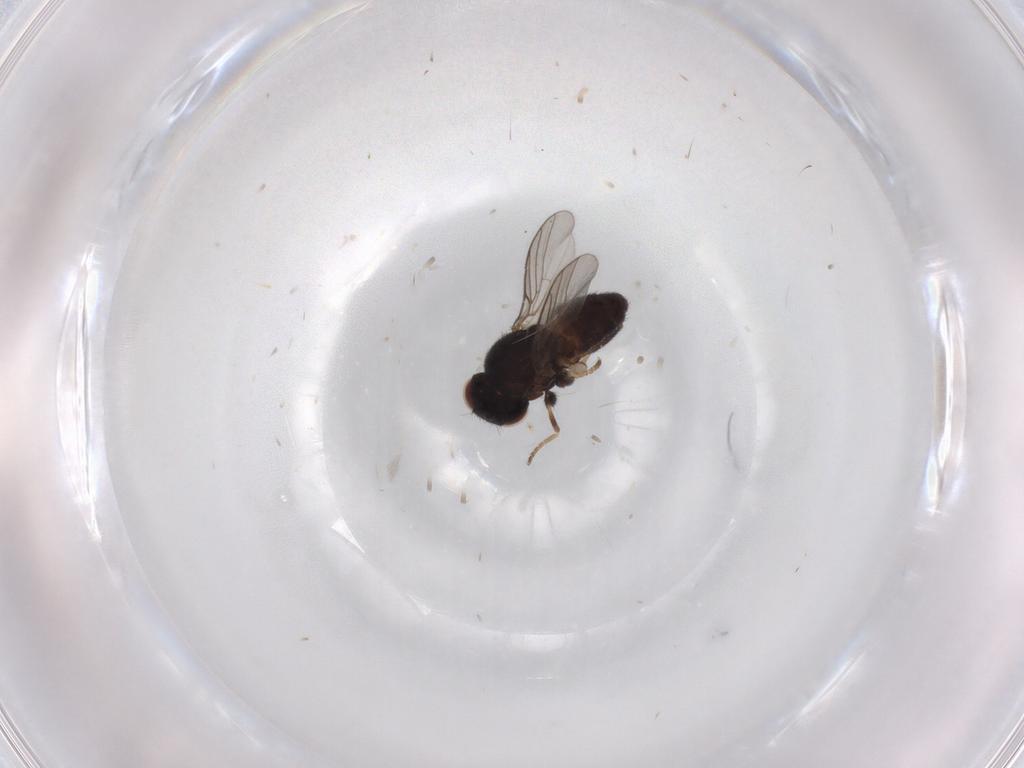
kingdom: Animalia
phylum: Arthropoda
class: Insecta
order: Diptera
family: Chloropidae
